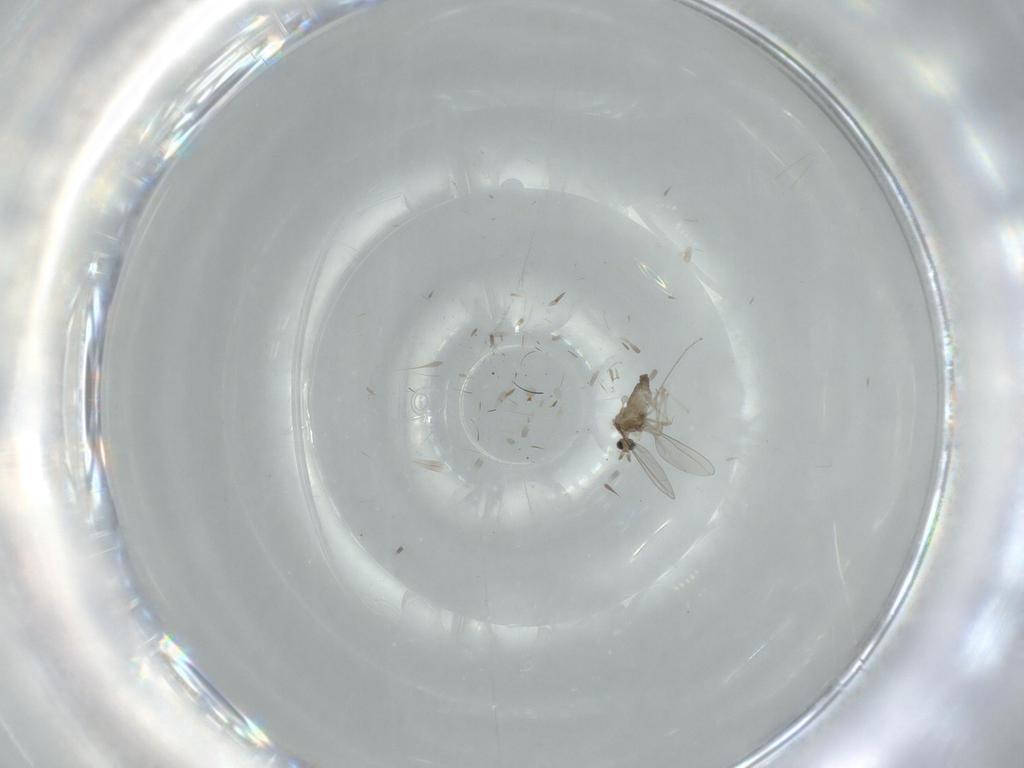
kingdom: Animalia
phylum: Arthropoda
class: Insecta
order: Diptera
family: Cecidomyiidae
